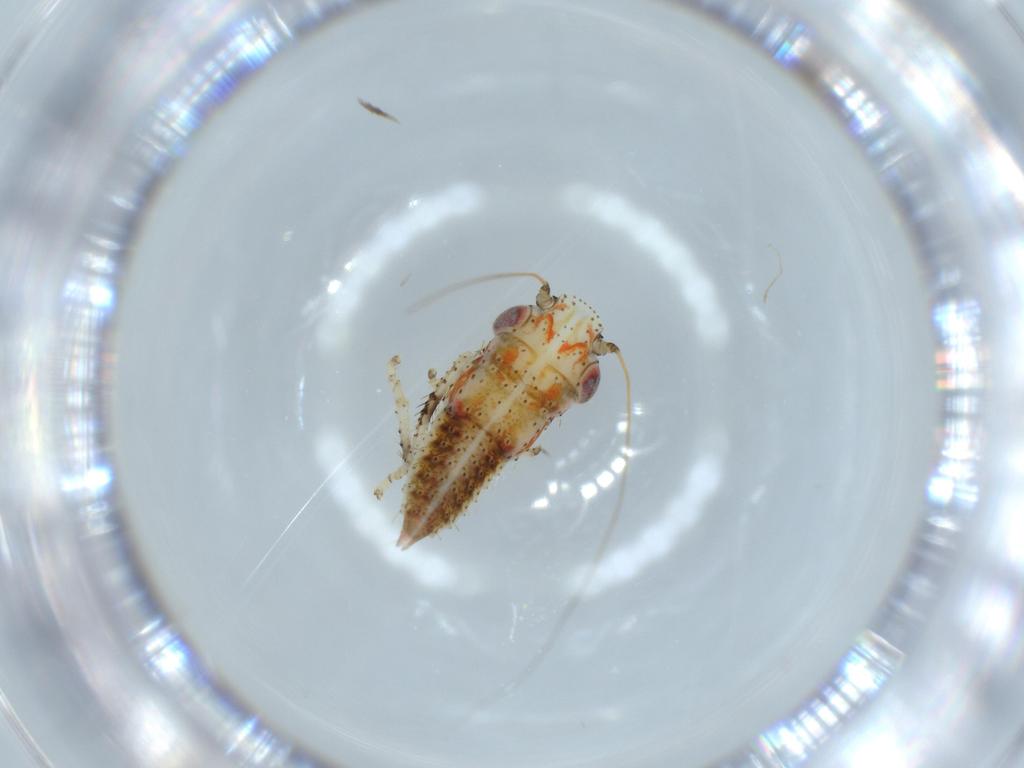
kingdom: Animalia
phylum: Arthropoda
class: Insecta
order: Hemiptera
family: Cicadellidae
